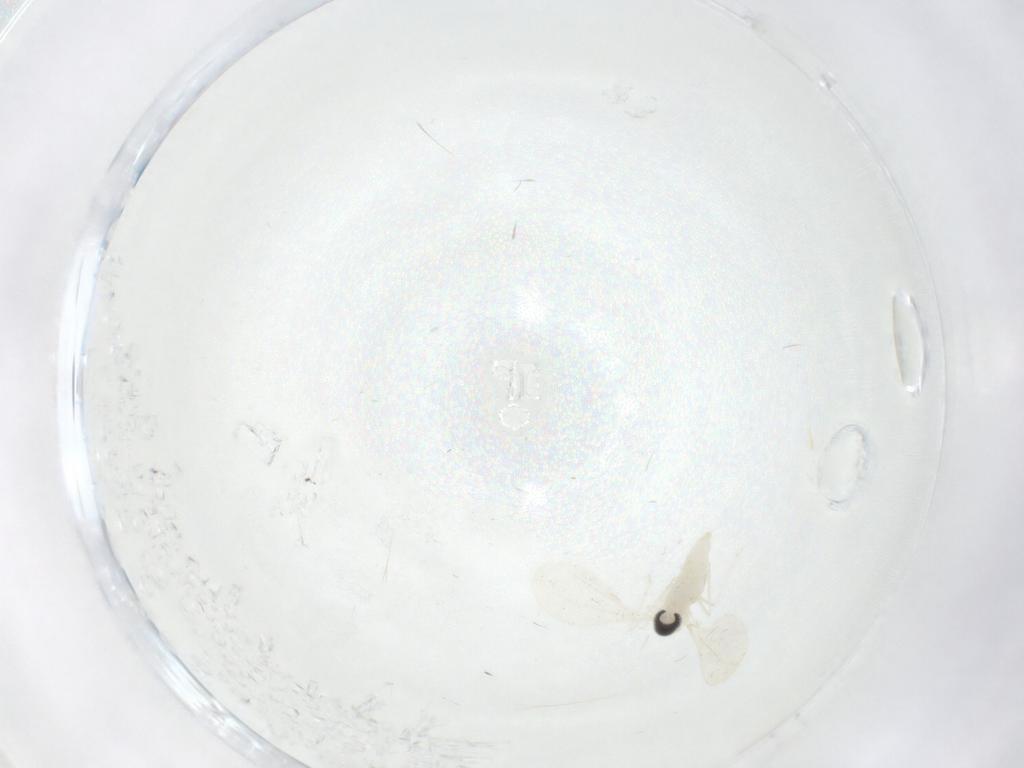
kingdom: Animalia
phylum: Arthropoda
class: Insecta
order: Diptera
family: Cecidomyiidae
